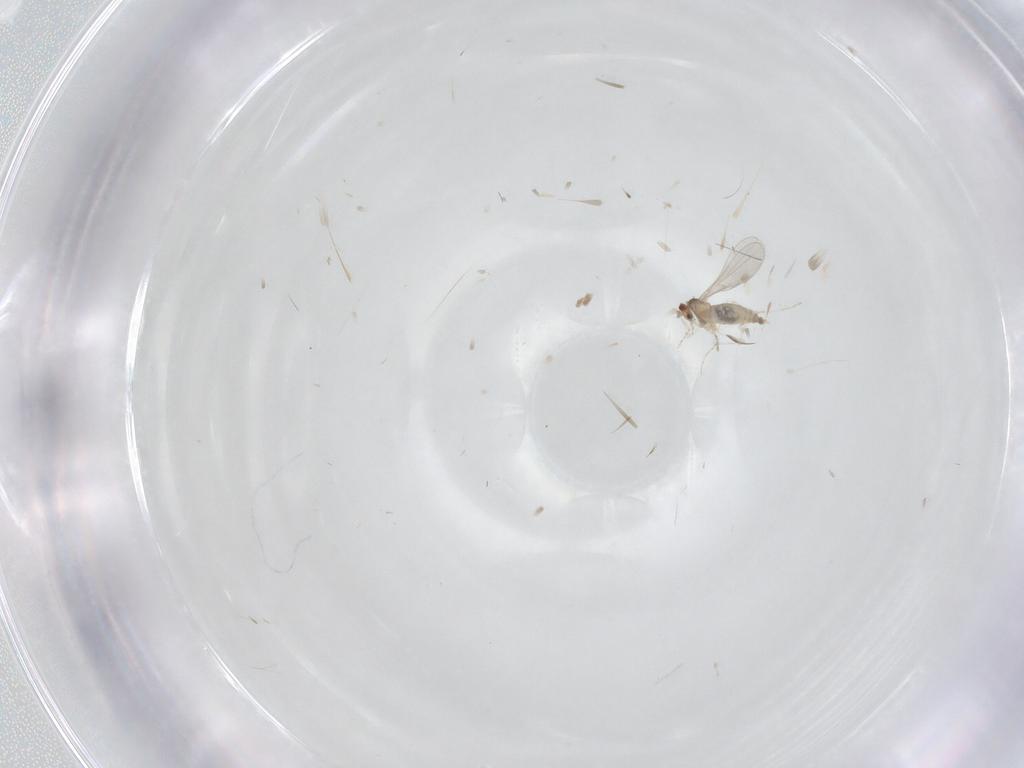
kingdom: Animalia
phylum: Arthropoda
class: Insecta
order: Diptera
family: Cecidomyiidae
